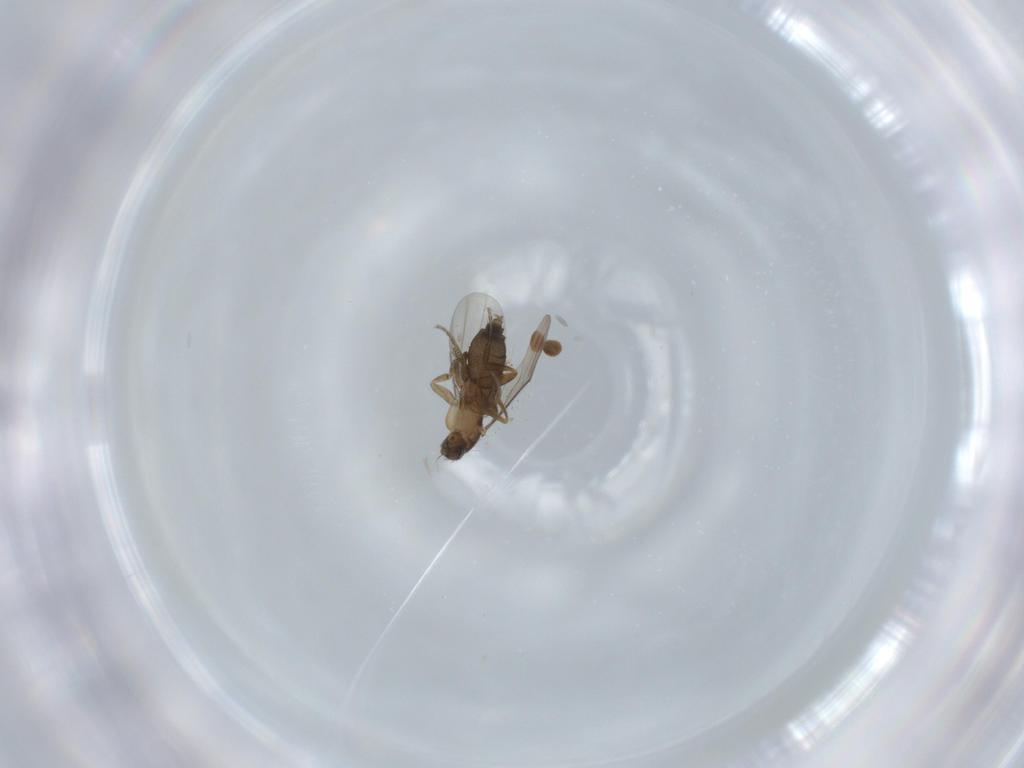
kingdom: Animalia
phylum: Arthropoda
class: Insecta
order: Diptera
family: Phoridae
